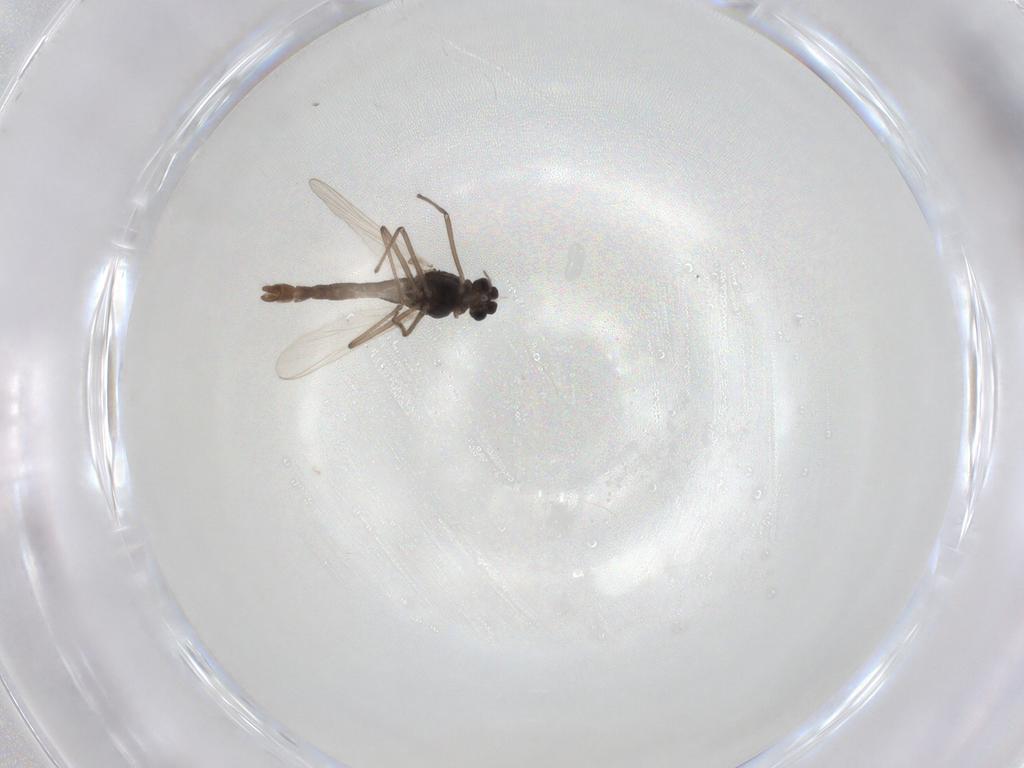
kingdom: Animalia
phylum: Arthropoda
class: Insecta
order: Diptera
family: Chironomidae
